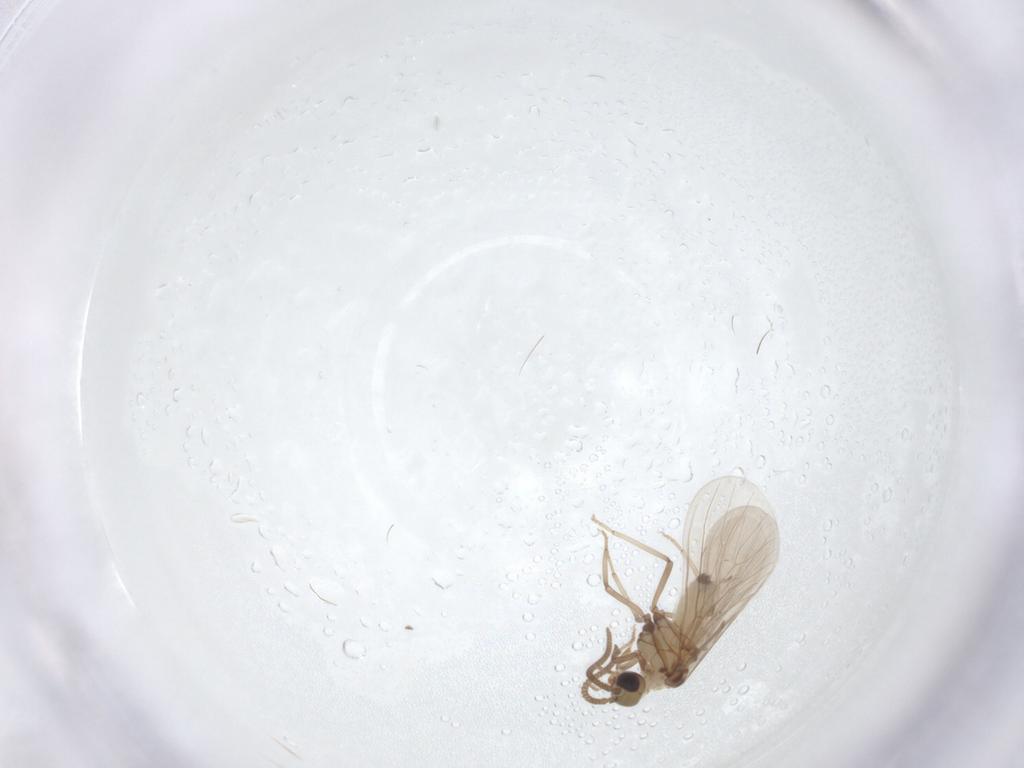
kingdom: Animalia
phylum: Arthropoda
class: Insecta
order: Neuroptera
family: Coniopterygidae
